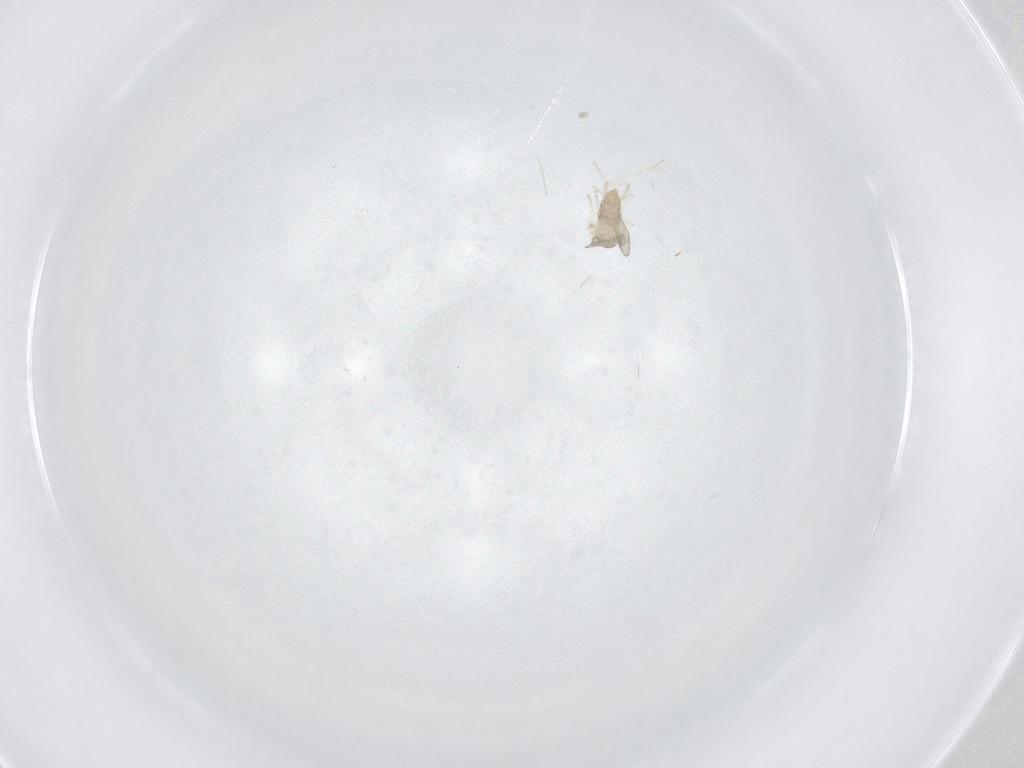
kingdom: Animalia
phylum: Arthropoda
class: Insecta
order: Diptera
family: Cecidomyiidae
